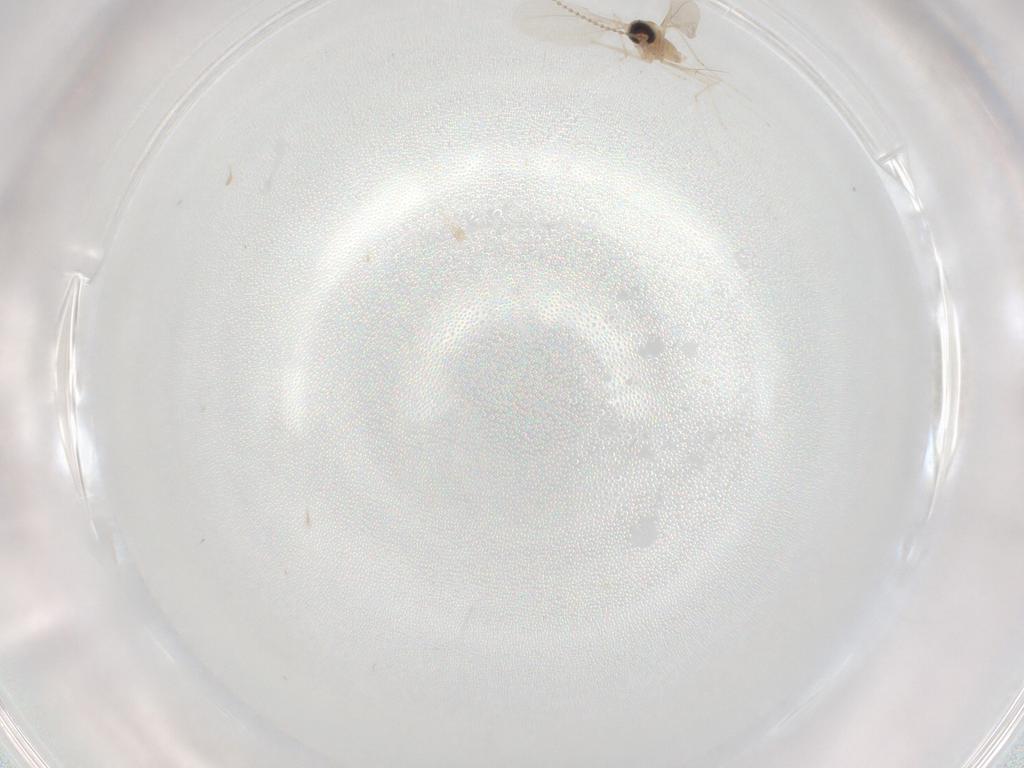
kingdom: Animalia
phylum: Arthropoda
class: Insecta
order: Diptera
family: Cecidomyiidae
